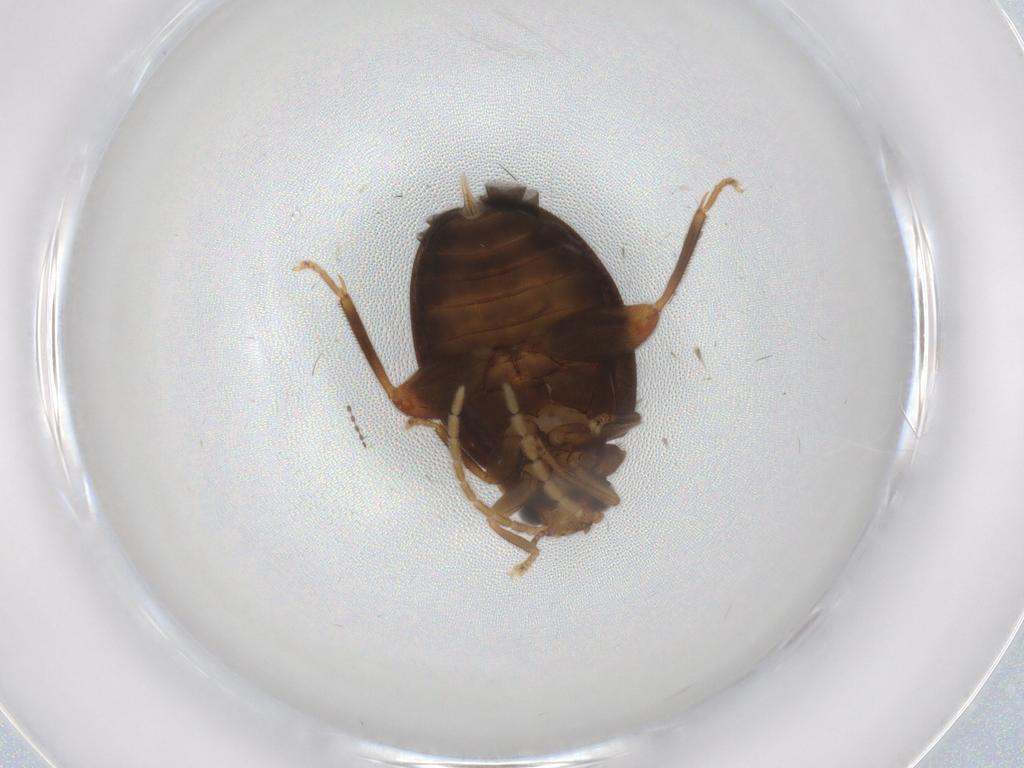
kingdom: Animalia
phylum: Arthropoda
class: Insecta
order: Coleoptera
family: Scirtidae
